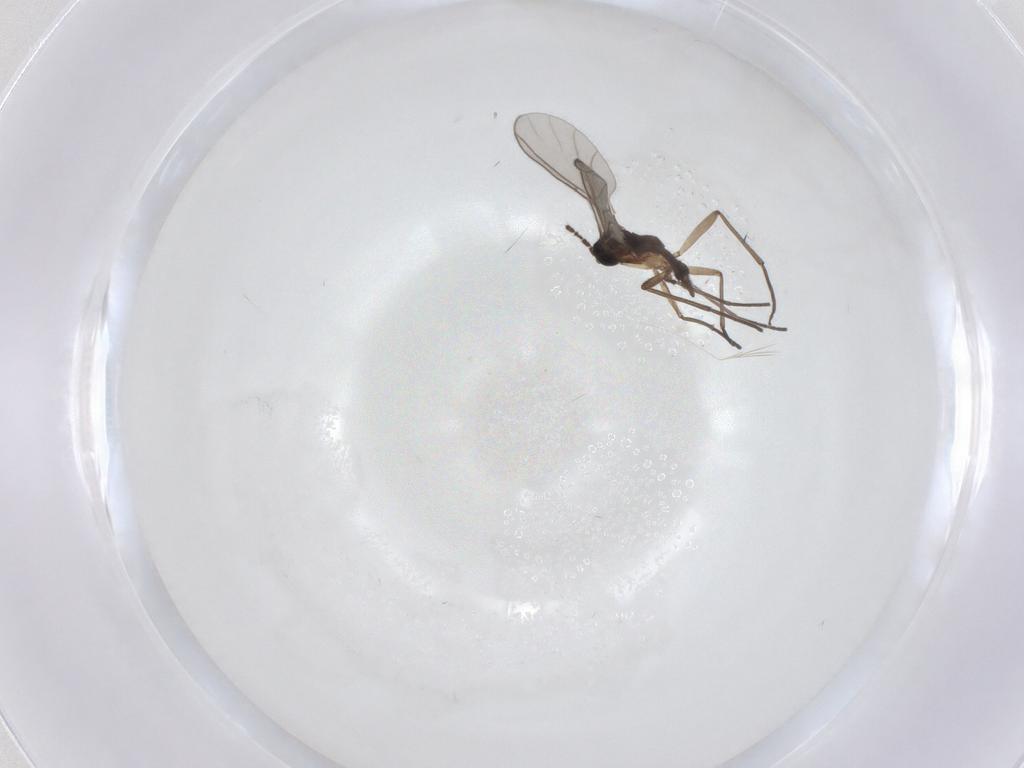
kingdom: Animalia
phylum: Arthropoda
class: Insecta
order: Diptera
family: Sciaridae
